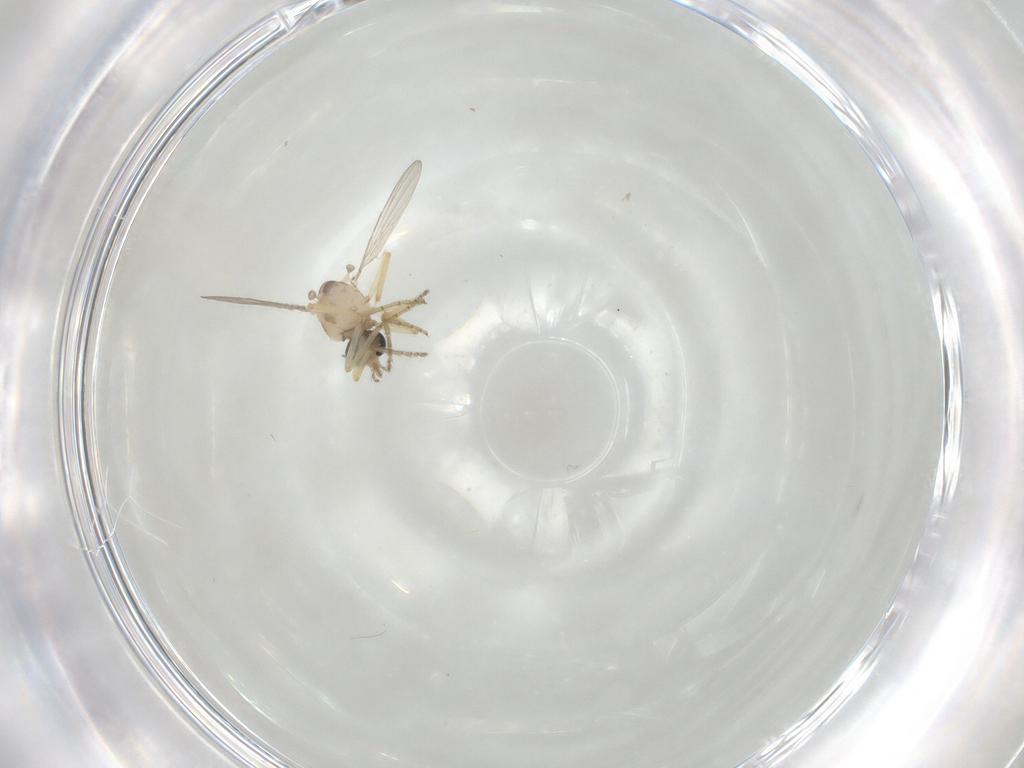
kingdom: Animalia
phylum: Arthropoda
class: Insecta
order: Diptera
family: Ceratopogonidae
